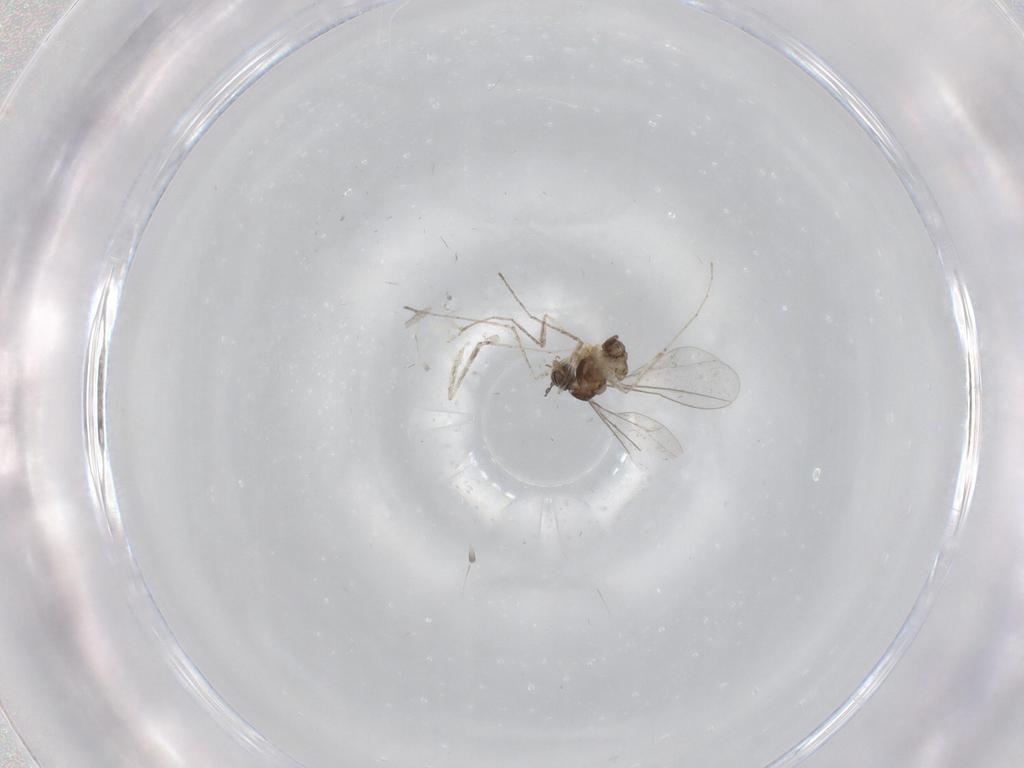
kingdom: Animalia
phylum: Arthropoda
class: Insecta
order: Diptera
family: Cecidomyiidae
